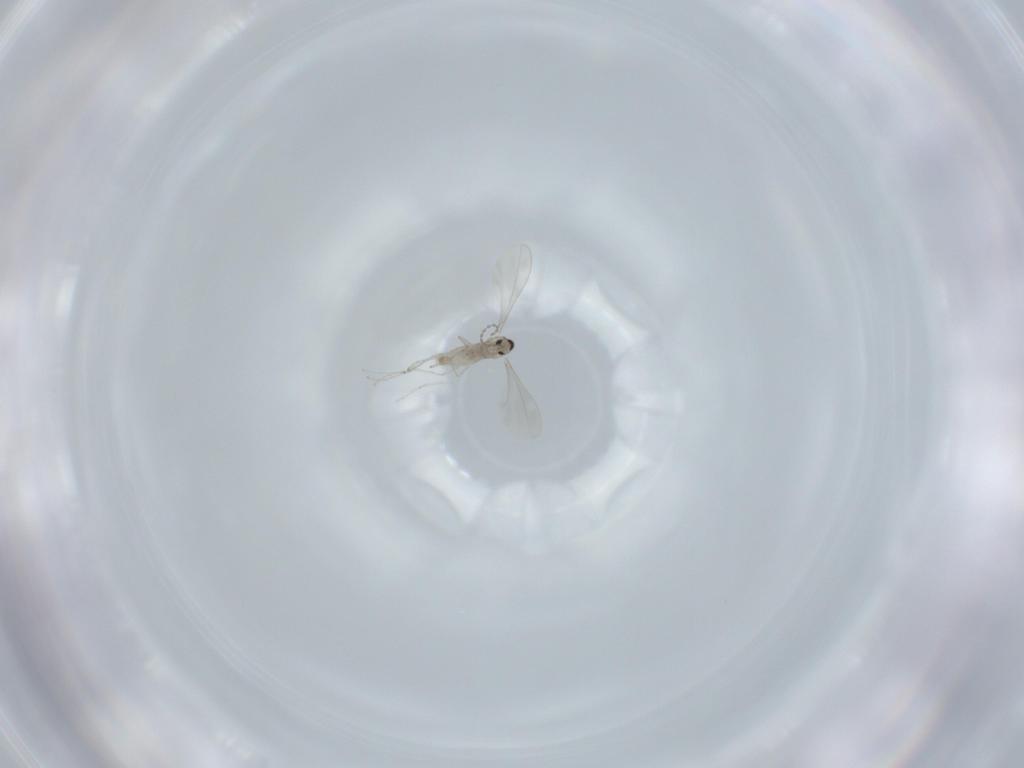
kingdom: Animalia
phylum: Arthropoda
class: Insecta
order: Diptera
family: Cecidomyiidae
